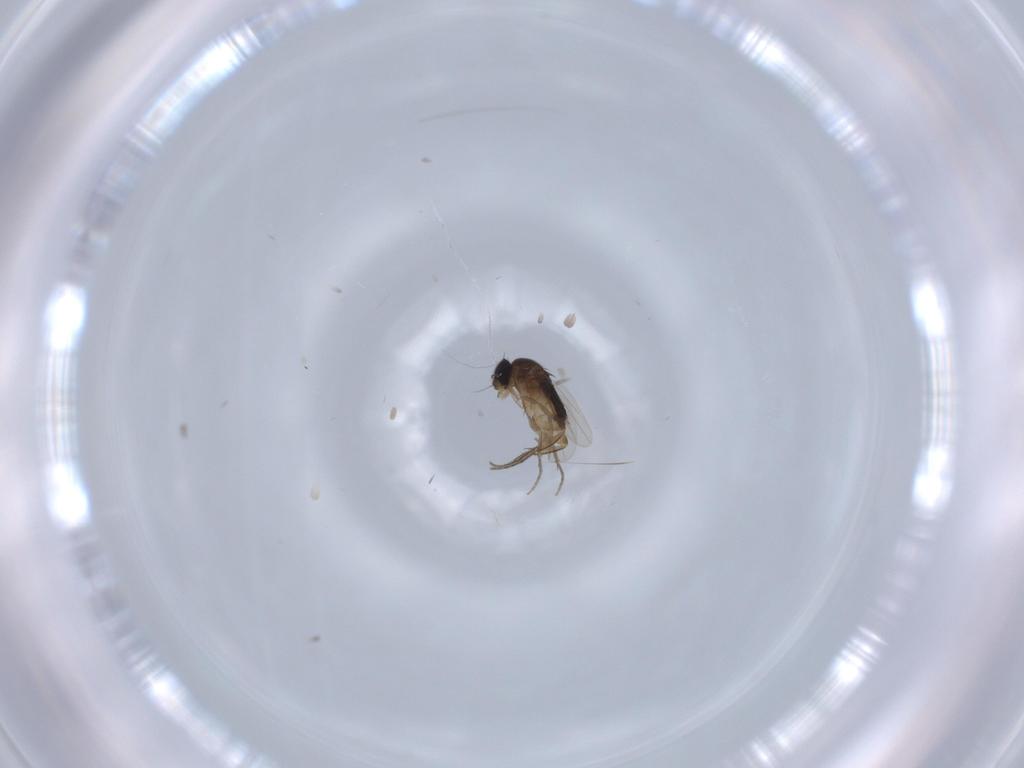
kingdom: Animalia
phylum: Arthropoda
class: Insecta
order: Diptera
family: Phoridae
